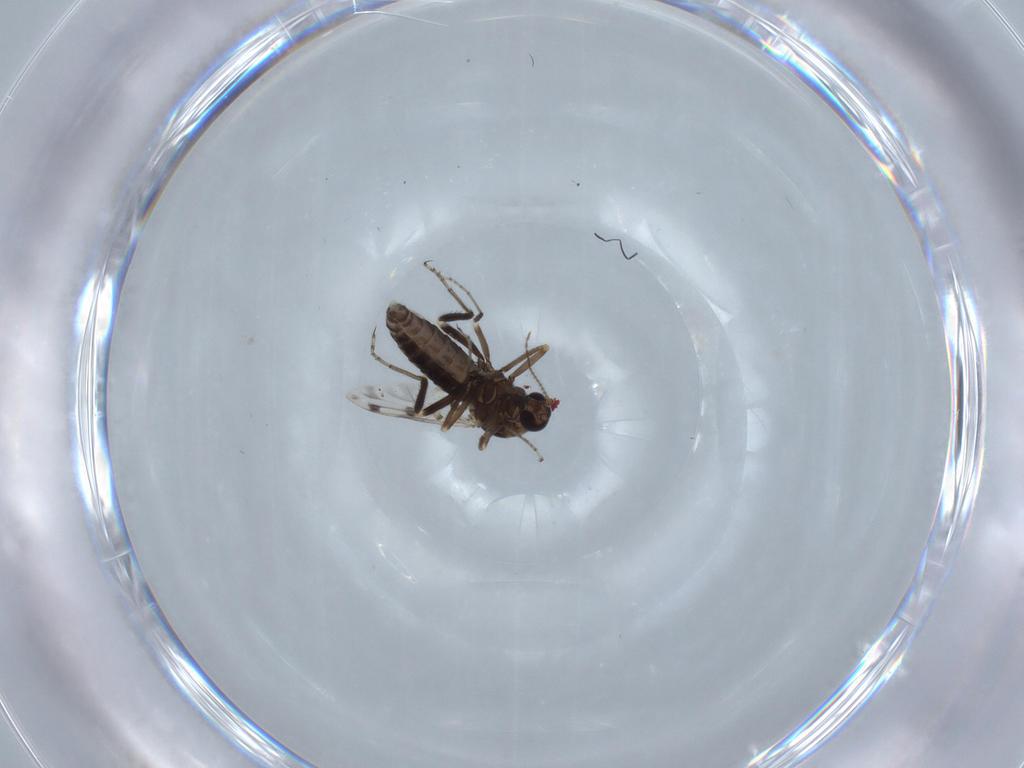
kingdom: Animalia
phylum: Arthropoda
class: Insecta
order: Diptera
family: Ceratopogonidae
